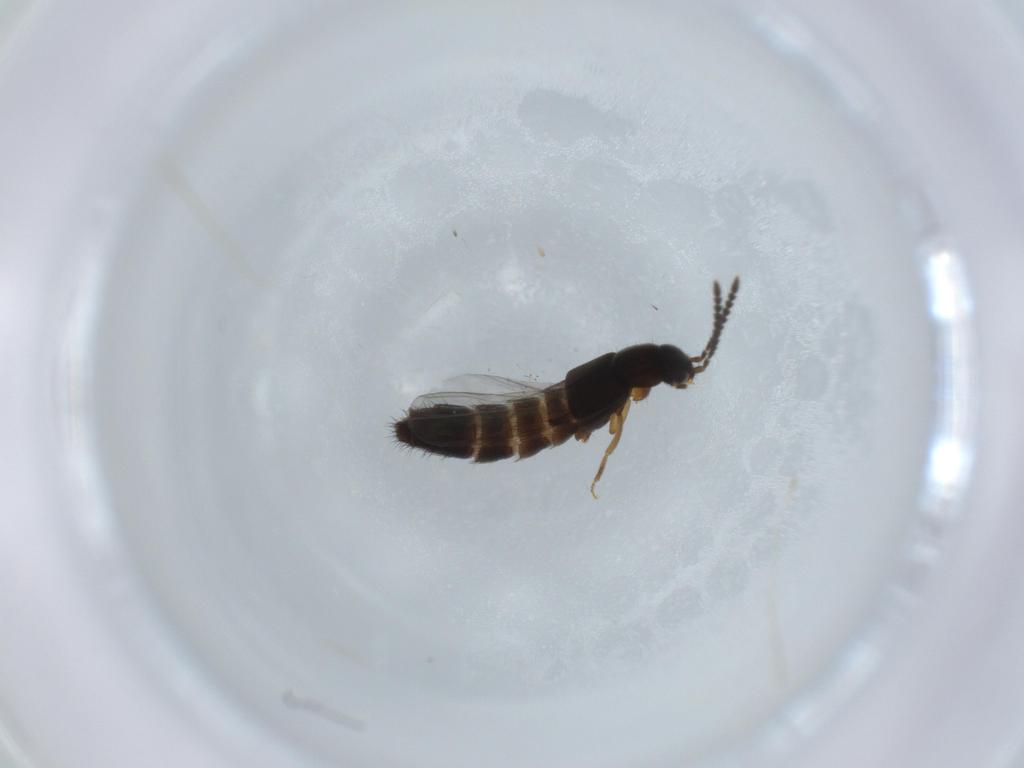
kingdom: Animalia
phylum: Arthropoda
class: Insecta
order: Coleoptera
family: Staphylinidae
